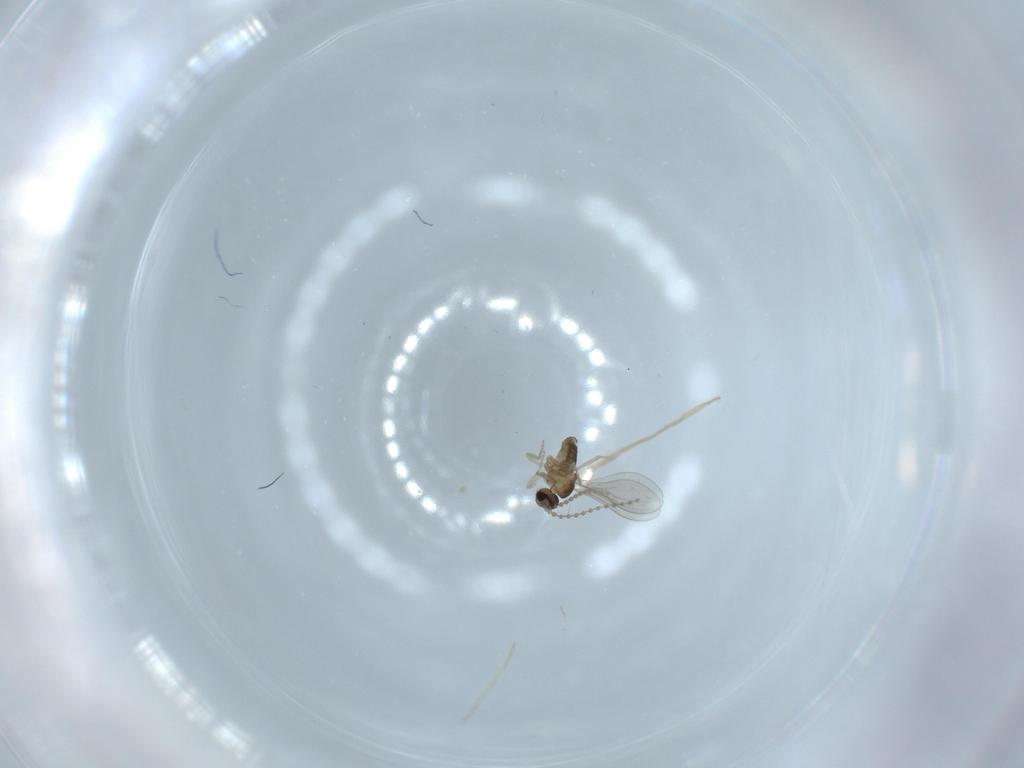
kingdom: Animalia
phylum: Arthropoda
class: Insecta
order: Diptera
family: Cecidomyiidae
